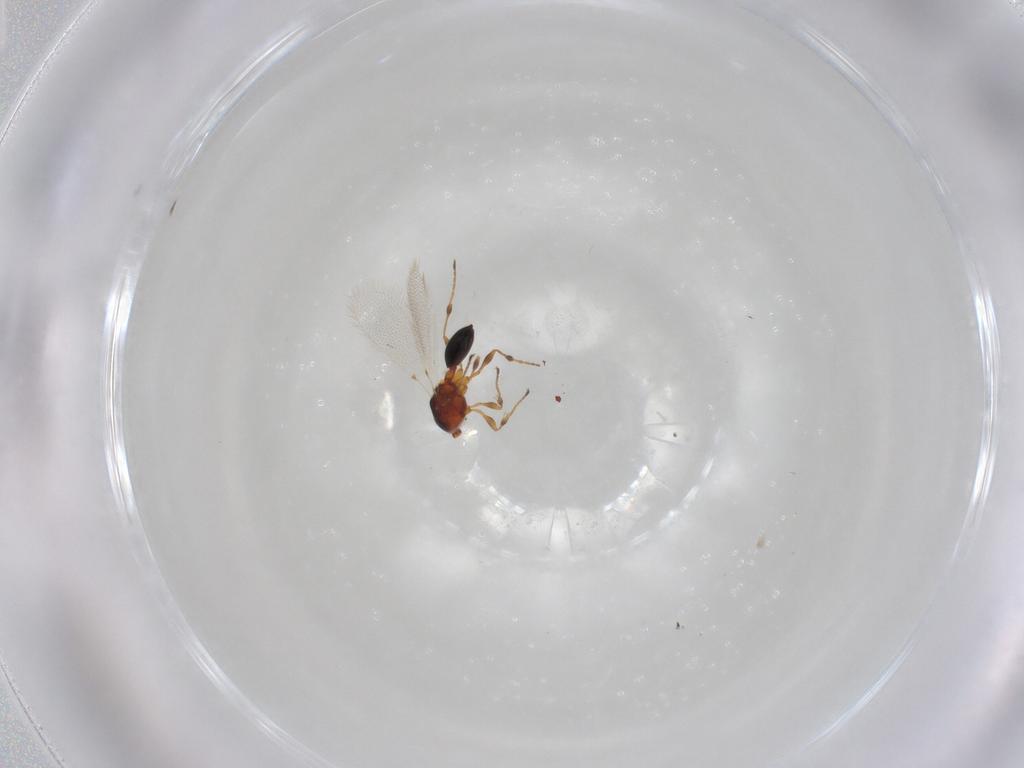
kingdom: Animalia
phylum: Arthropoda
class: Insecta
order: Hymenoptera
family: Diapriidae
